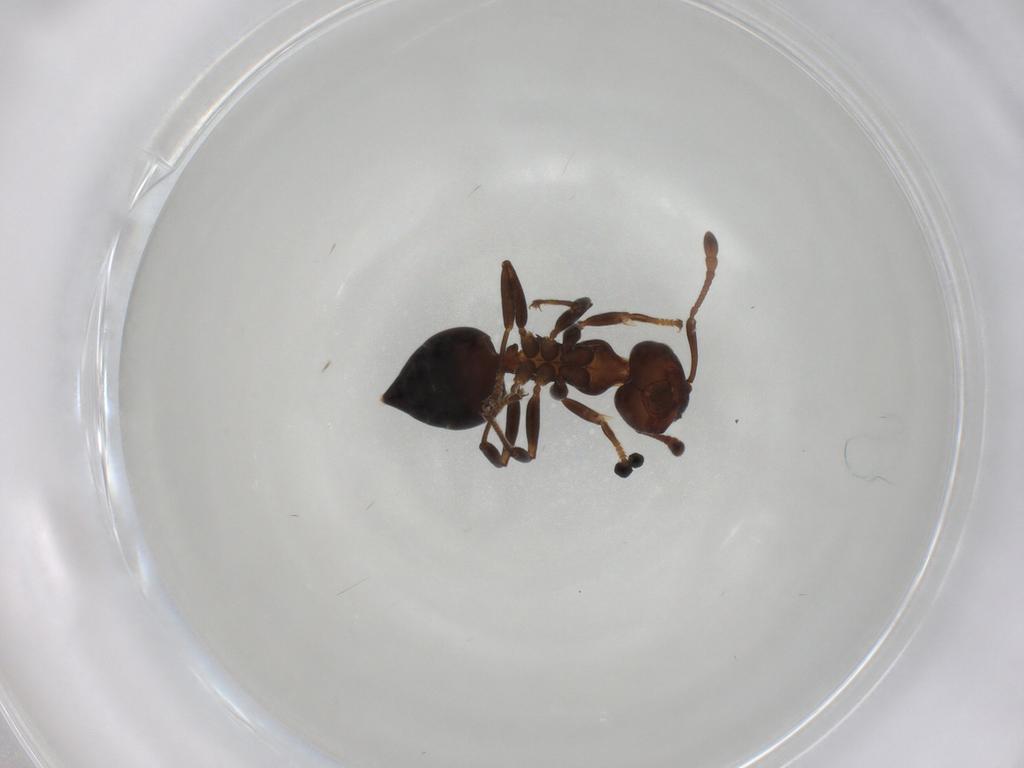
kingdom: Animalia
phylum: Arthropoda
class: Insecta
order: Hymenoptera
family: Formicidae
